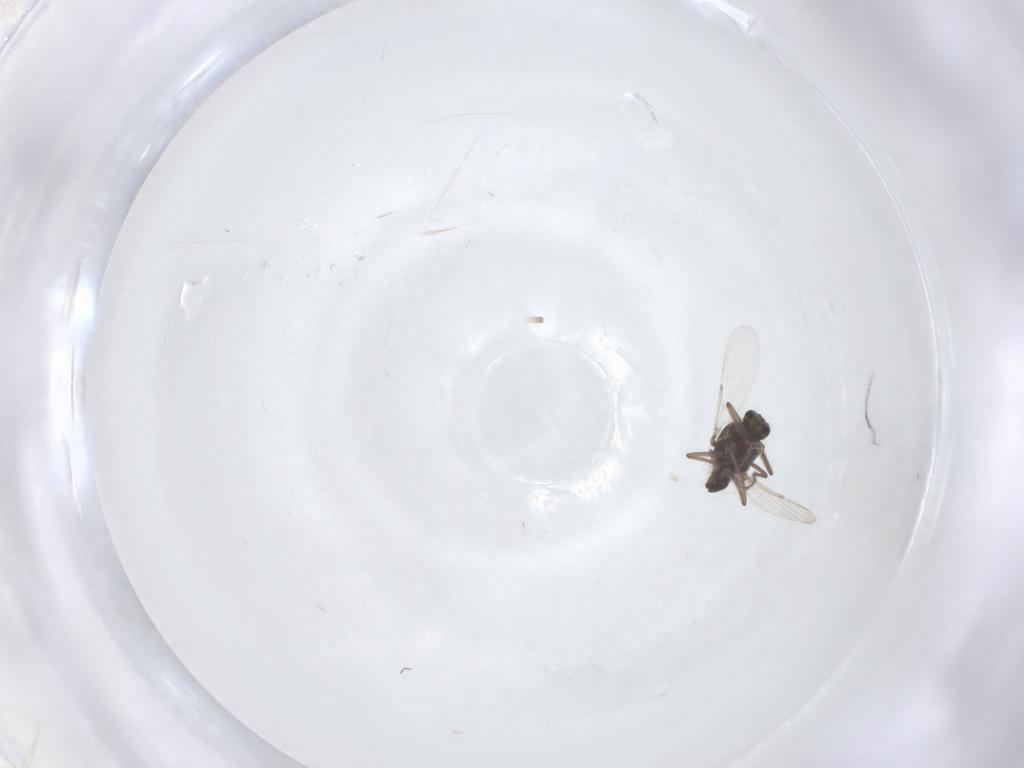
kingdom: Animalia
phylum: Arthropoda
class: Insecta
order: Diptera
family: Ceratopogonidae
